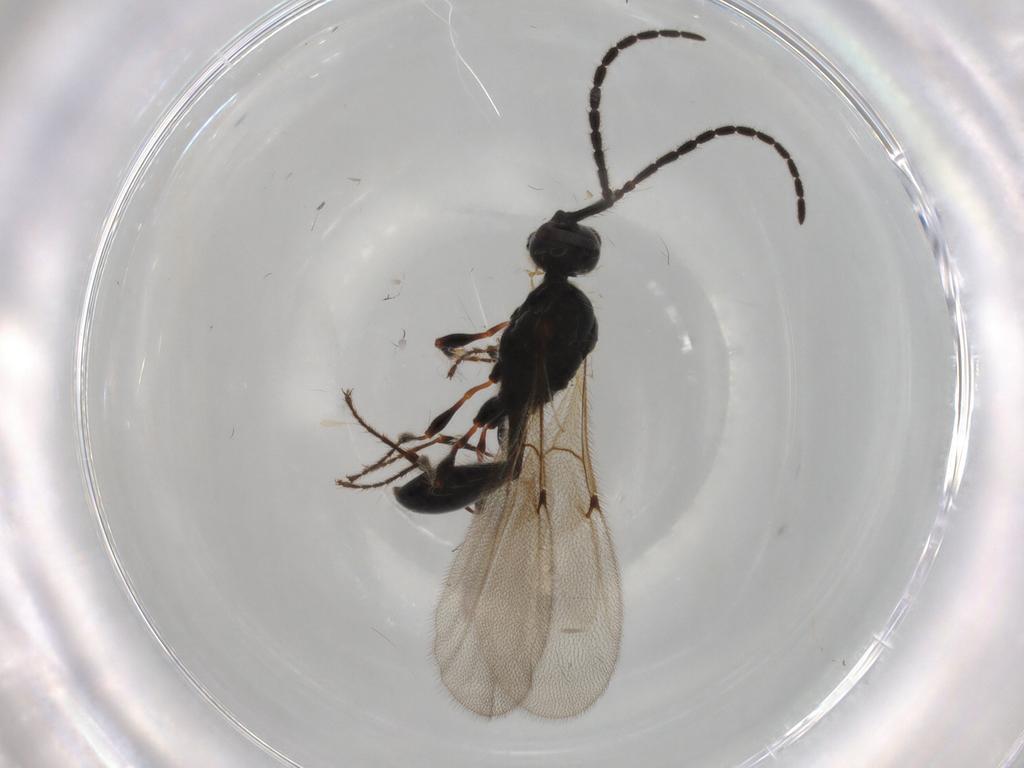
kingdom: Animalia
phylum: Arthropoda
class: Insecta
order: Hymenoptera
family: Diapriidae
